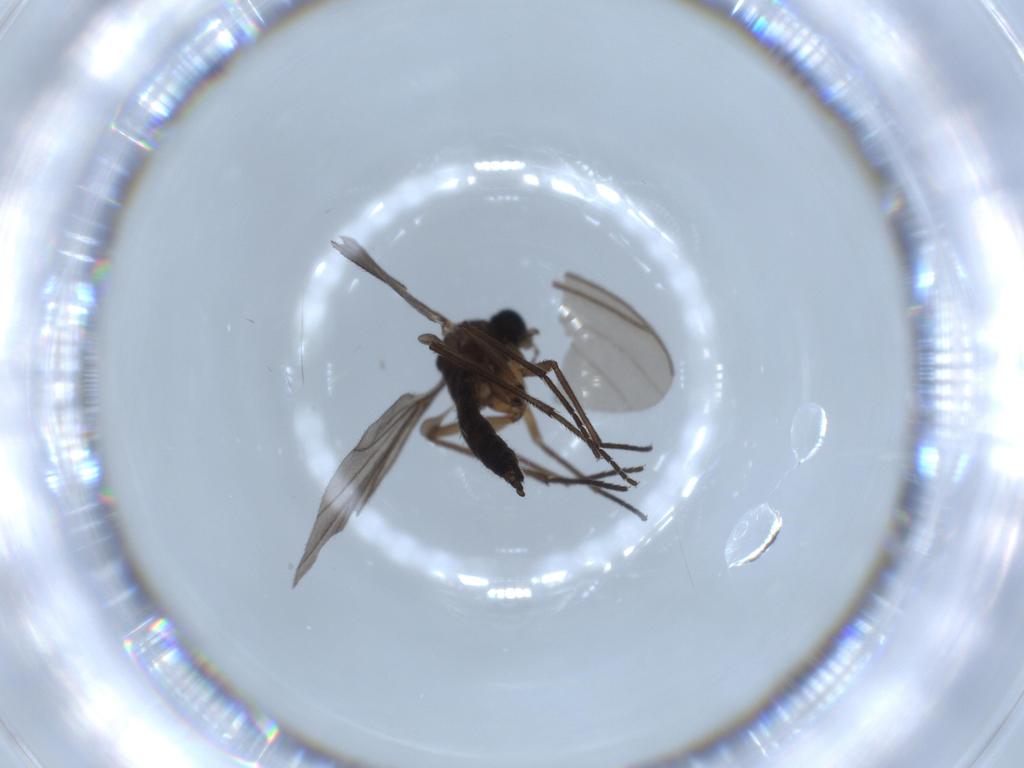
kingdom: Animalia
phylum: Arthropoda
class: Insecta
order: Diptera
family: Sciaridae
